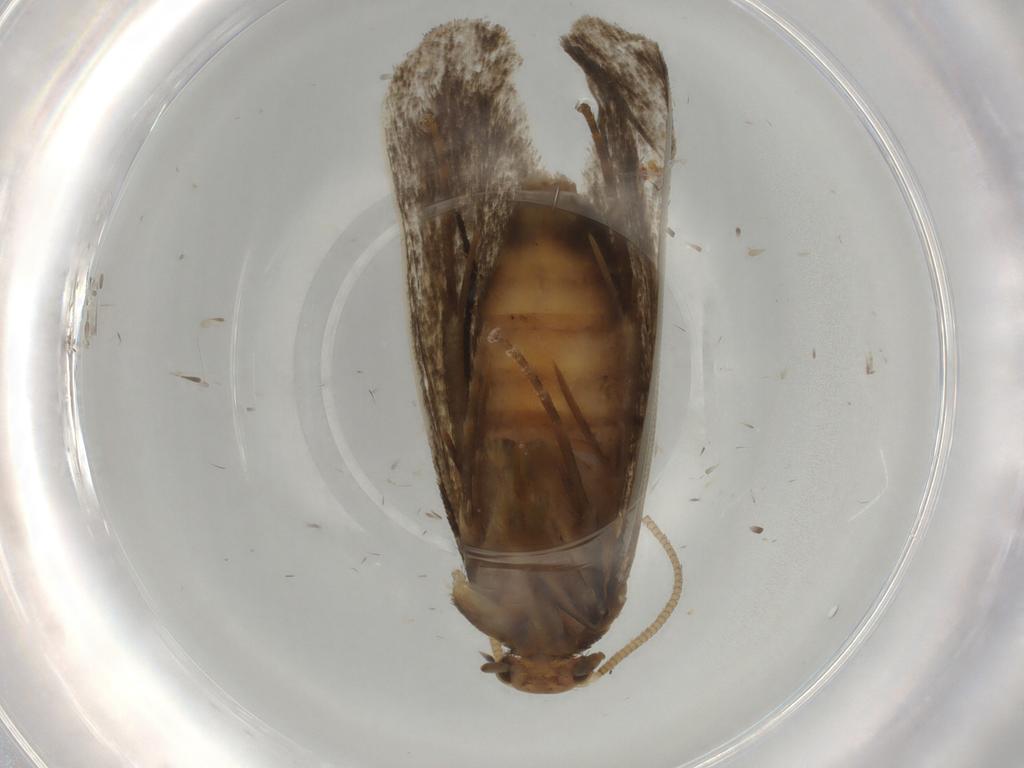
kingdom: Animalia
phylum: Arthropoda
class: Insecta
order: Lepidoptera
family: Dryadaulidae
